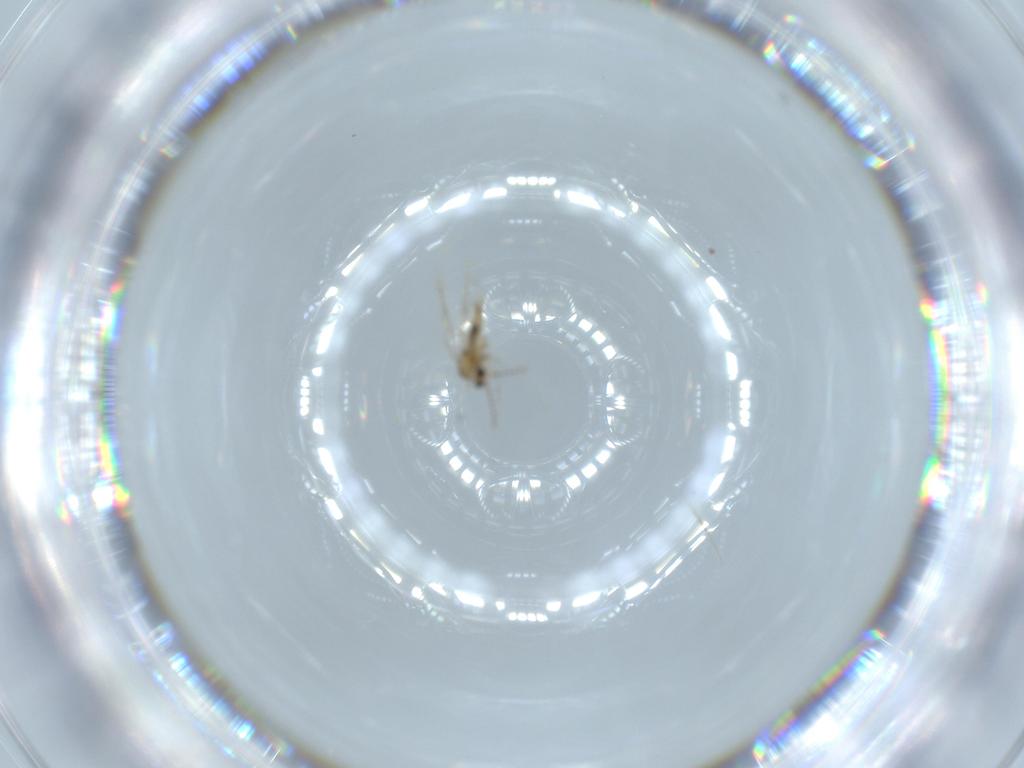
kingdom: Animalia
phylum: Arthropoda
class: Insecta
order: Diptera
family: Cecidomyiidae
